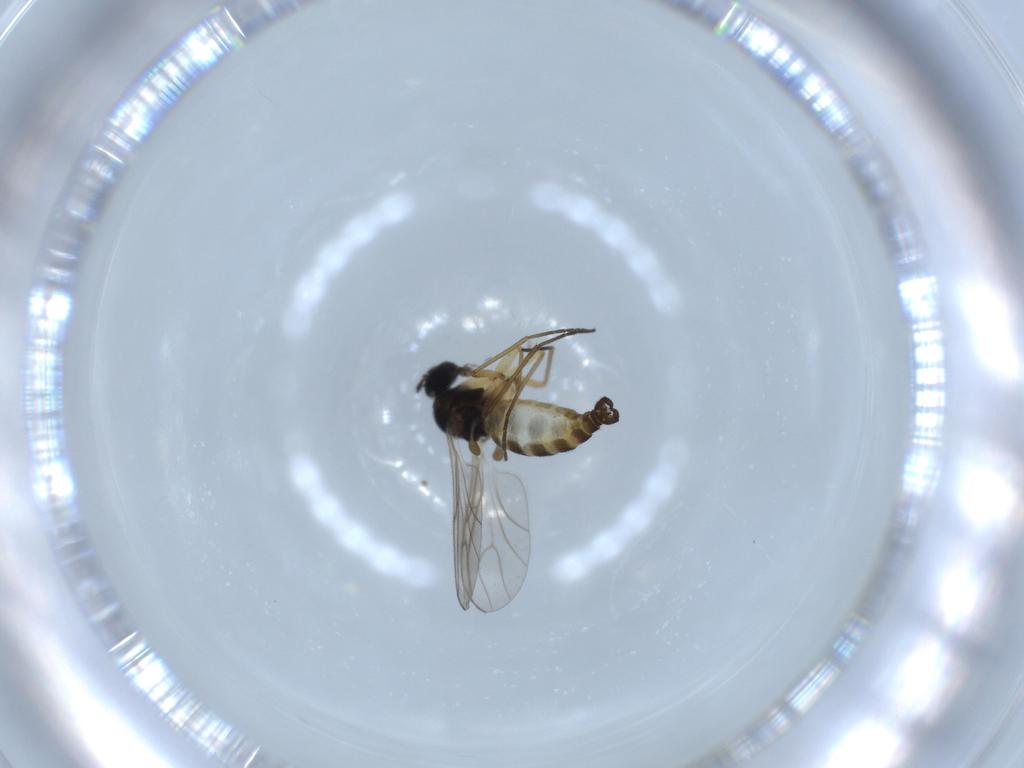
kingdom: Animalia
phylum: Arthropoda
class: Insecta
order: Diptera
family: Sciaridae
